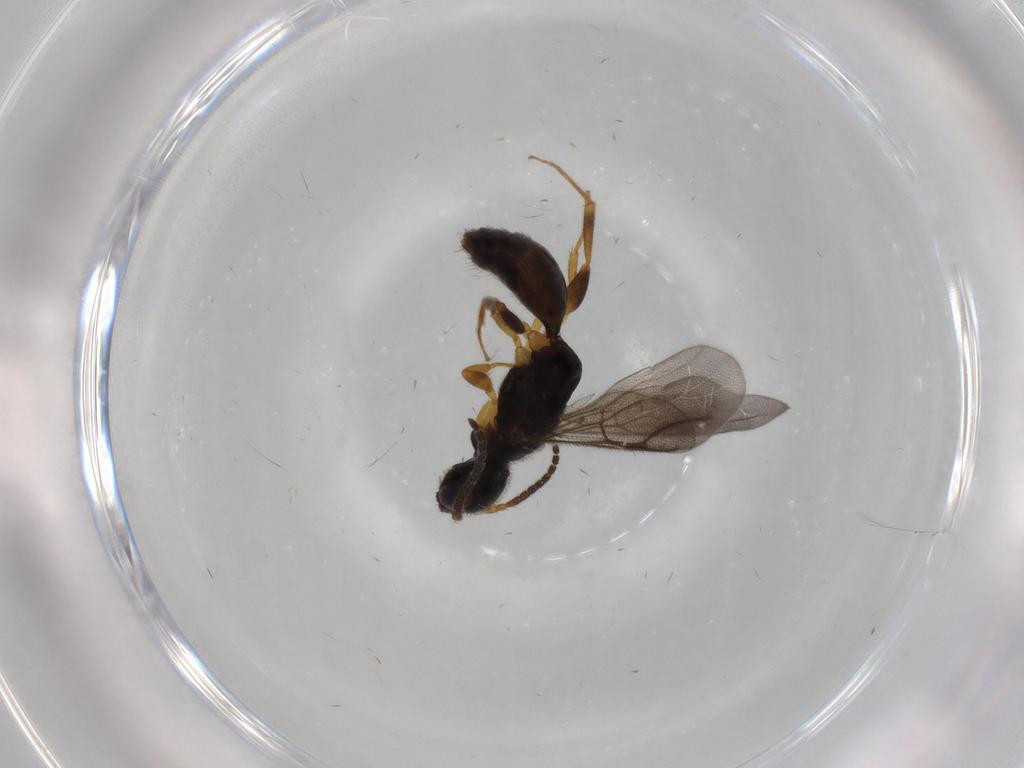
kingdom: Animalia
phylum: Arthropoda
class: Insecta
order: Hymenoptera
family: Bethylidae
